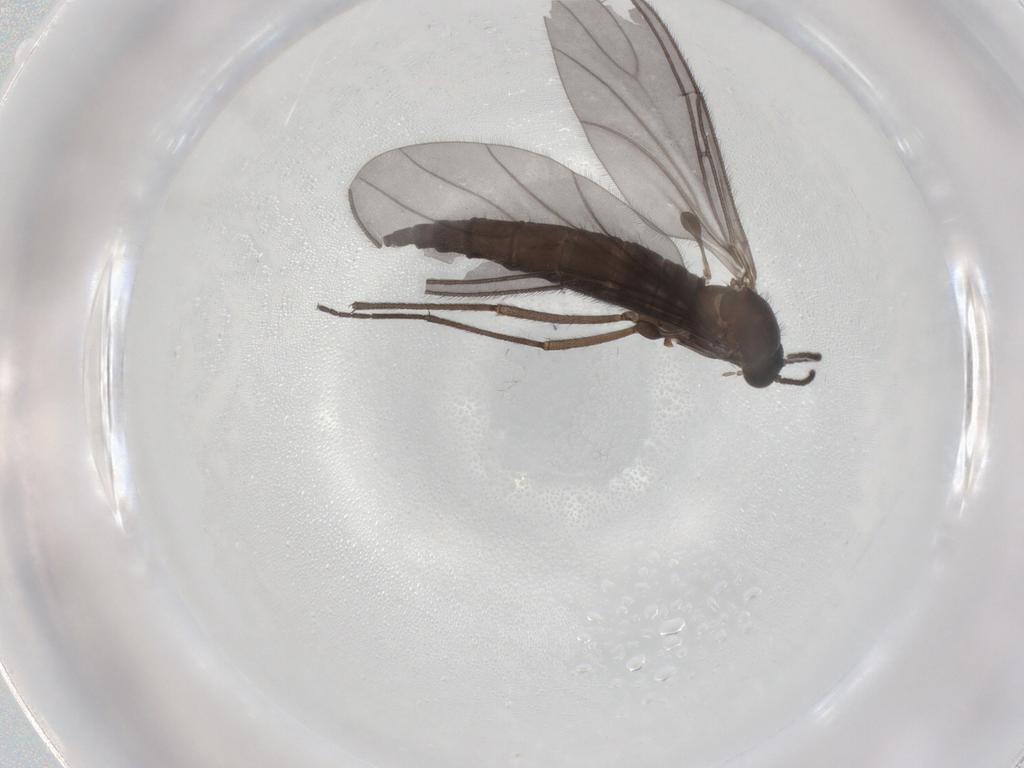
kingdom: Animalia
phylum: Arthropoda
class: Insecta
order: Diptera
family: Sciaridae
